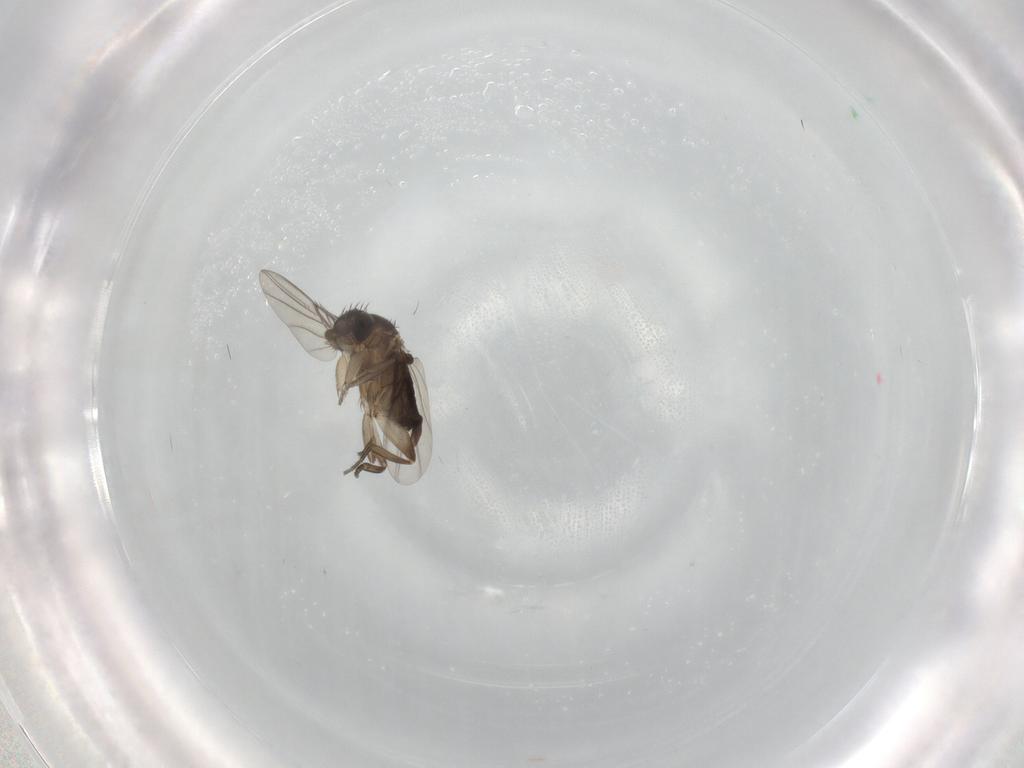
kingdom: Animalia
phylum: Arthropoda
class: Insecta
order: Diptera
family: Phoridae
